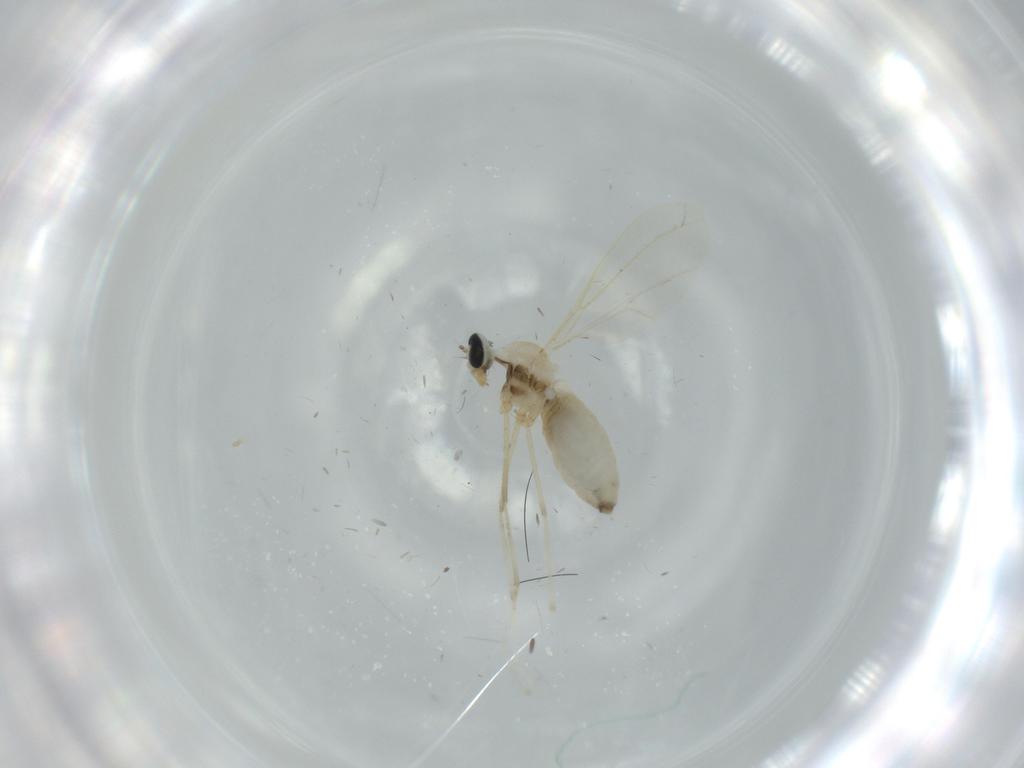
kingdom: Animalia
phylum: Arthropoda
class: Insecta
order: Diptera
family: Cecidomyiidae
